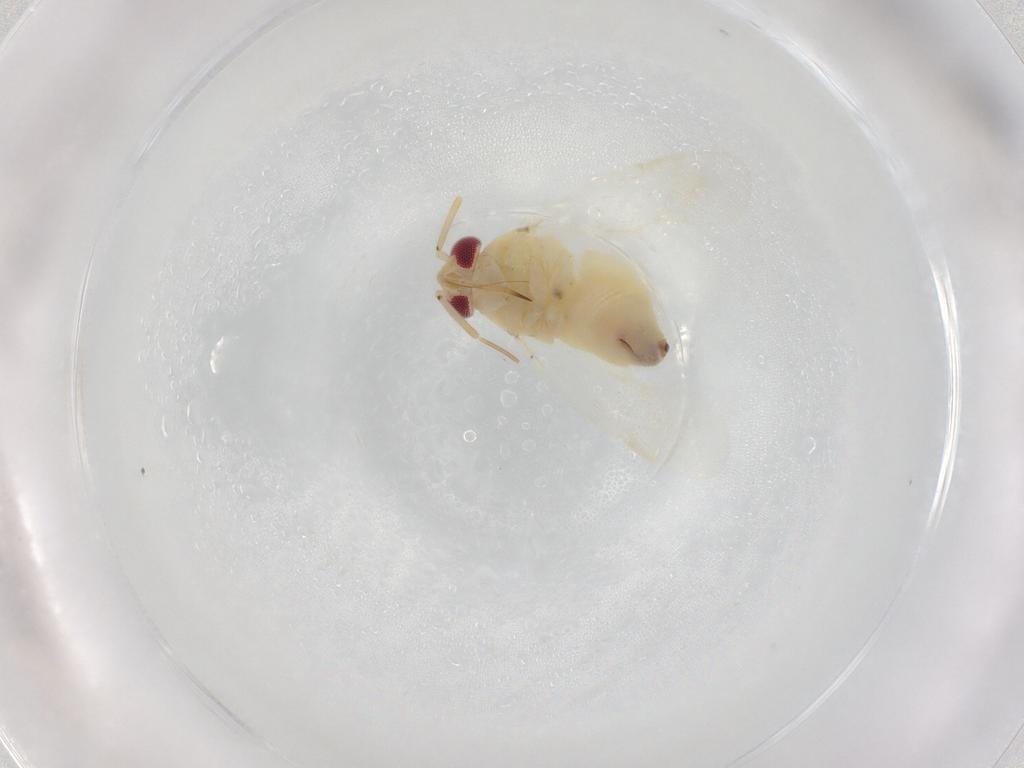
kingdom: Animalia
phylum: Arthropoda
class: Insecta
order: Hemiptera
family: Miridae
